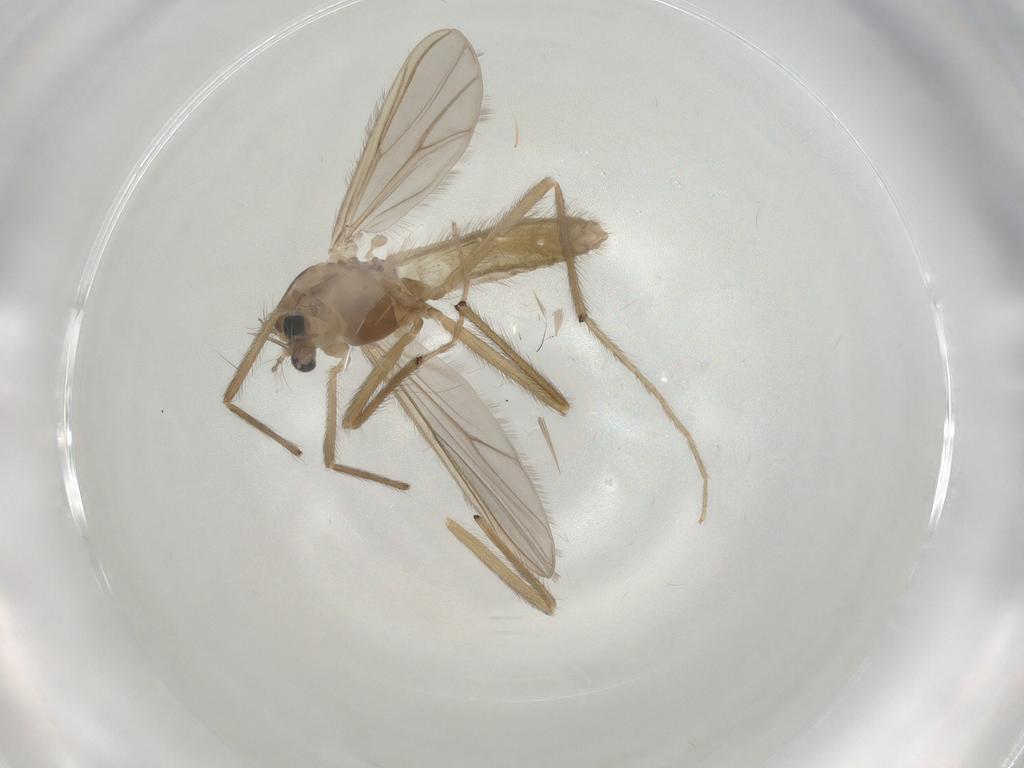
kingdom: Animalia
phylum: Arthropoda
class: Insecta
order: Diptera
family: Chironomidae
